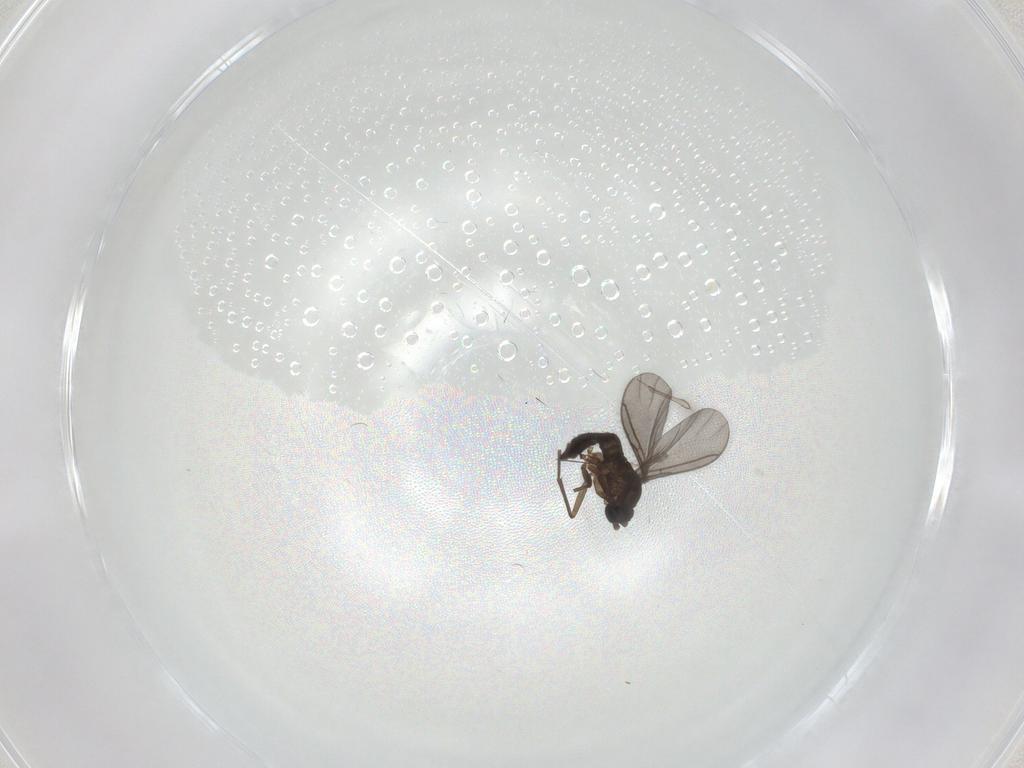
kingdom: Animalia
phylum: Arthropoda
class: Insecta
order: Diptera
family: Sciaridae
